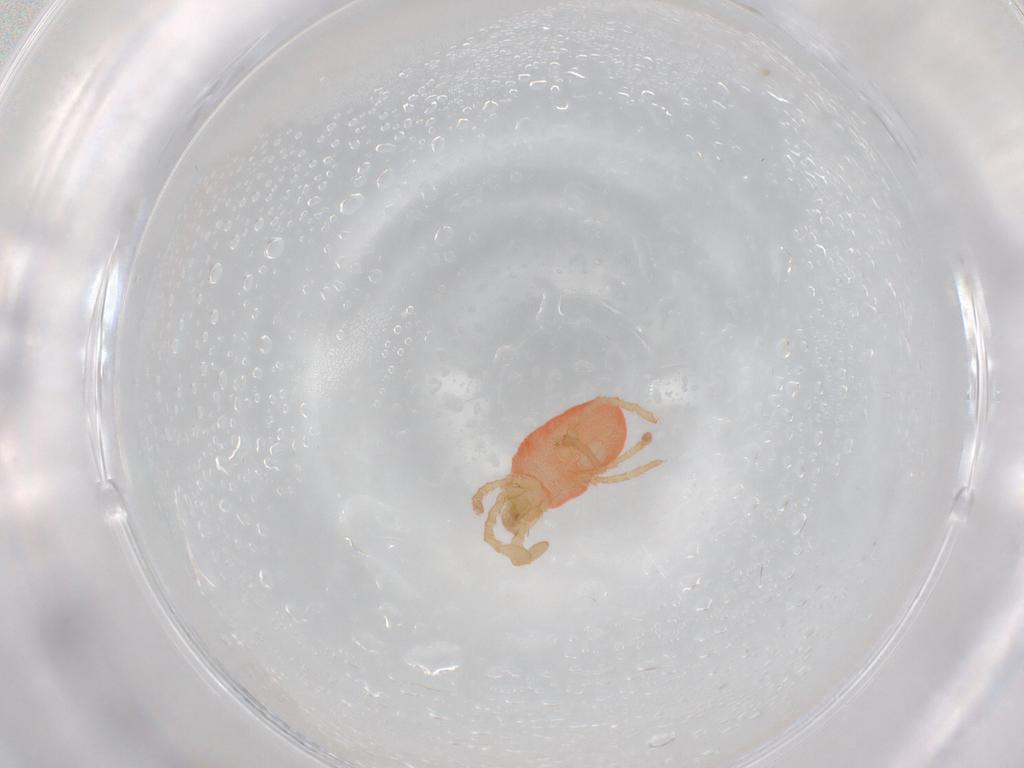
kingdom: Animalia
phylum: Arthropoda
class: Arachnida
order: Trombidiformes
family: Microtrombidiidae
